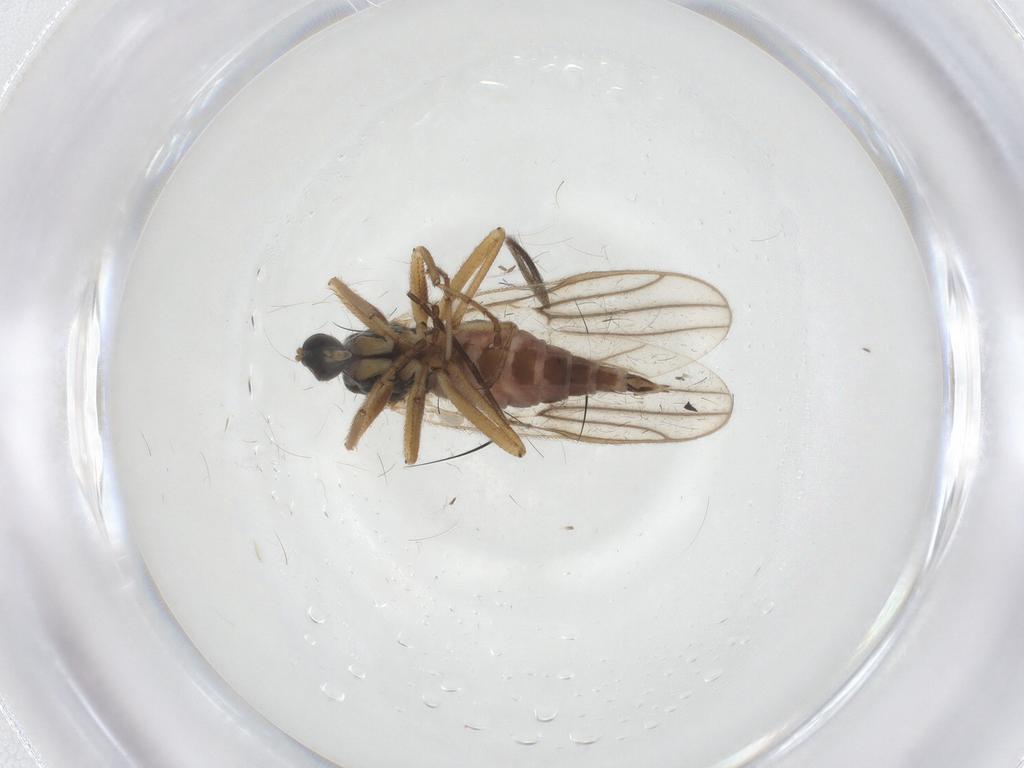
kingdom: Animalia
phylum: Arthropoda
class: Insecta
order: Diptera
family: Hybotidae
